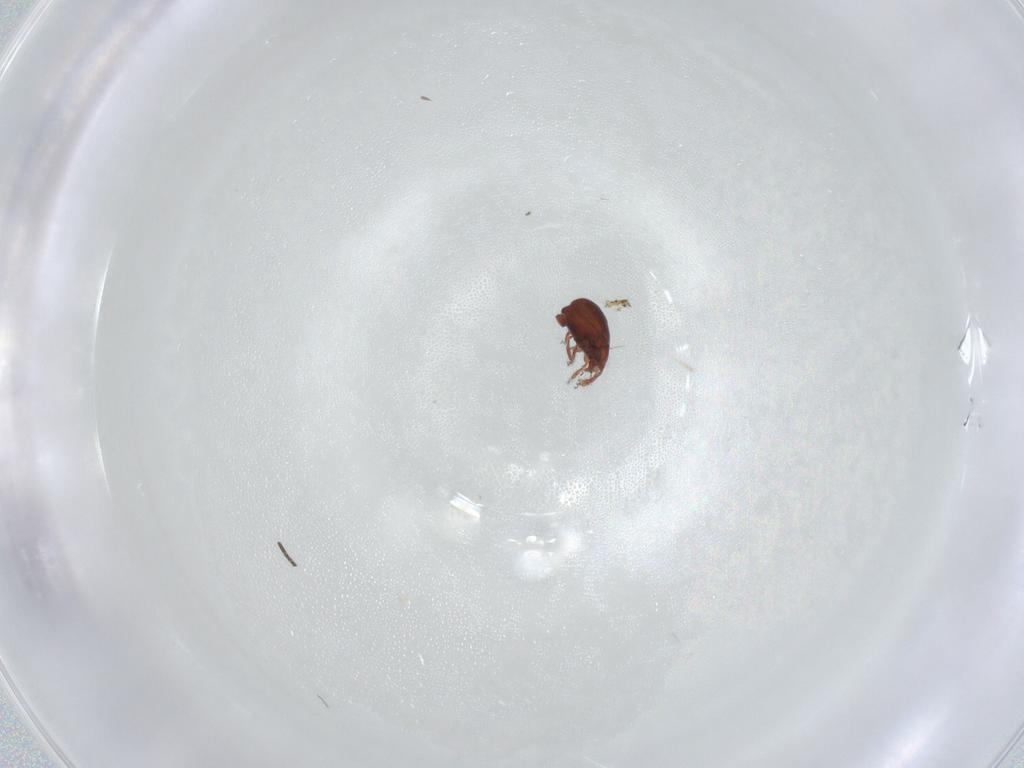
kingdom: Animalia
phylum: Arthropoda
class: Arachnida
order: Sarcoptiformes
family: Humerobatidae
